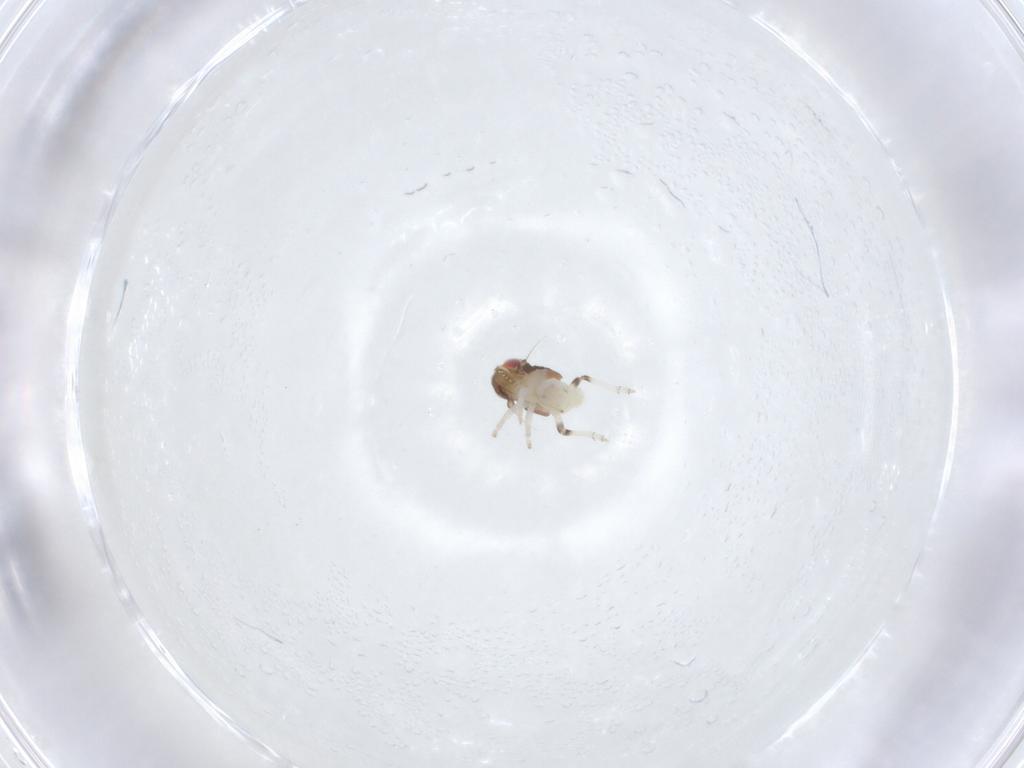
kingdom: Animalia
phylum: Arthropoda
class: Insecta
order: Hemiptera
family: Nogodinidae
